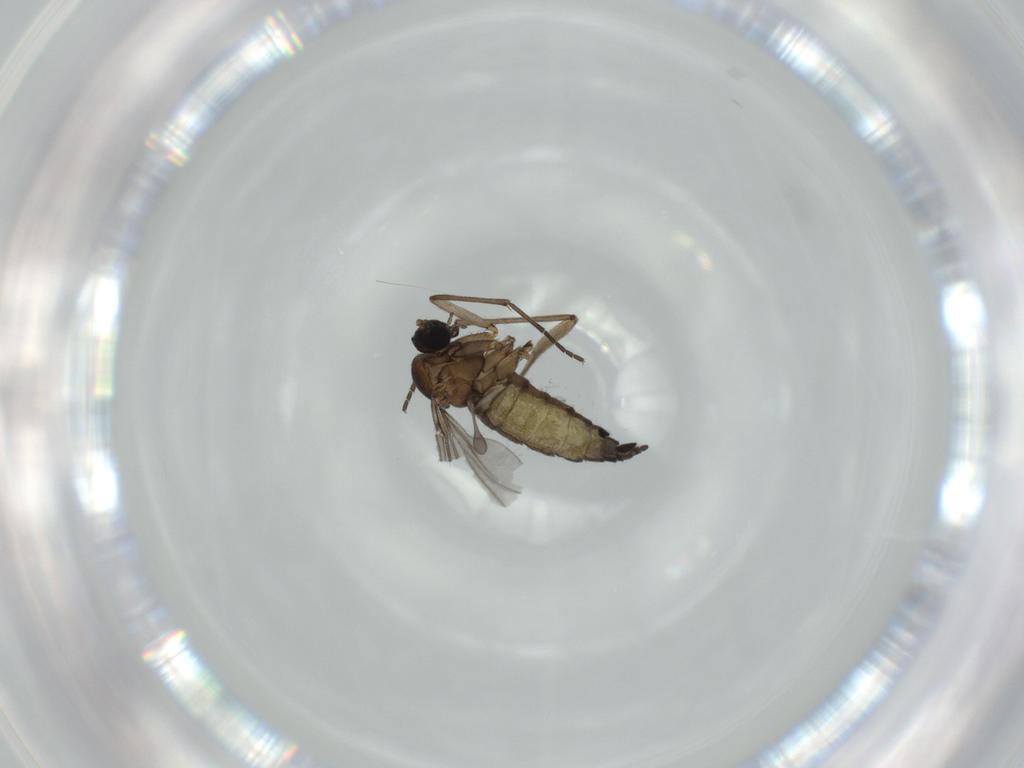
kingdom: Animalia
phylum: Arthropoda
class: Insecta
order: Diptera
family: Sciaridae
